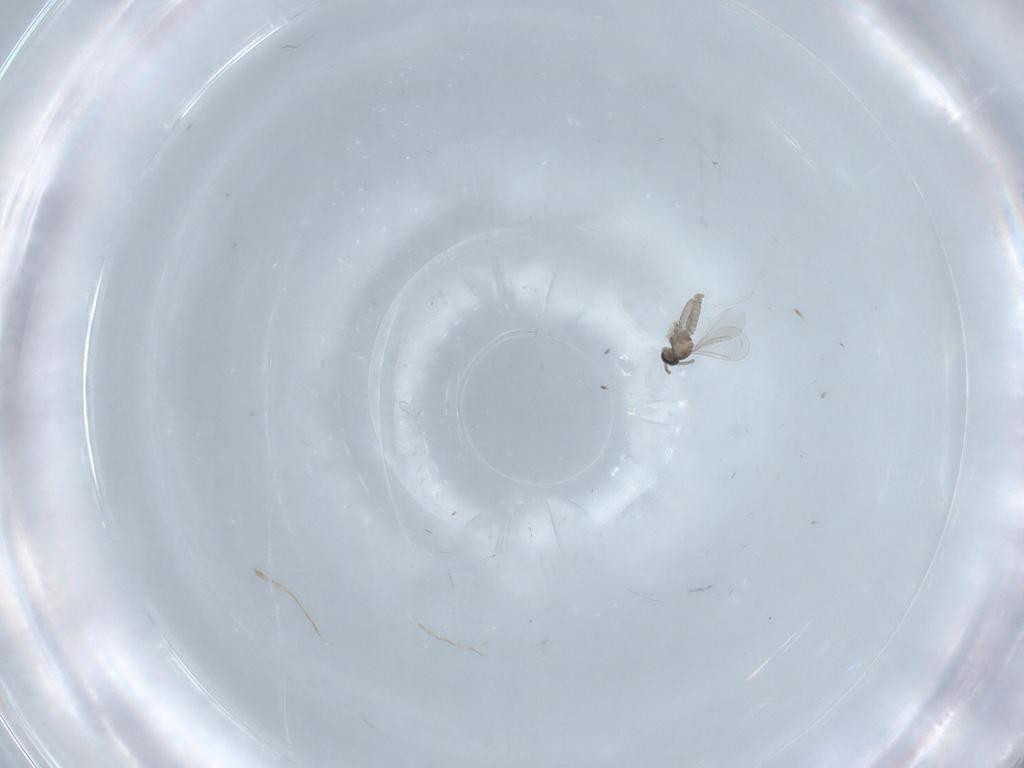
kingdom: Animalia
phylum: Arthropoda
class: Insecta
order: Diptera
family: Cecidomyiidae
